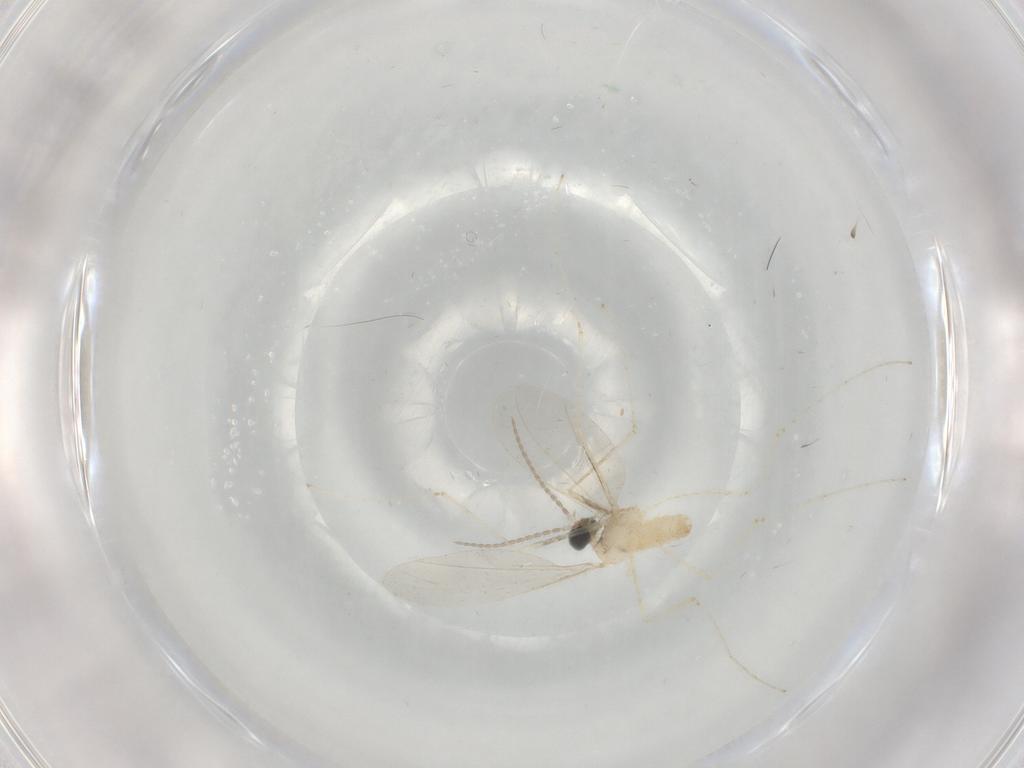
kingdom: Animalia
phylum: Arthropoda
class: Insecta
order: Diptera
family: Cecidomyiidae
